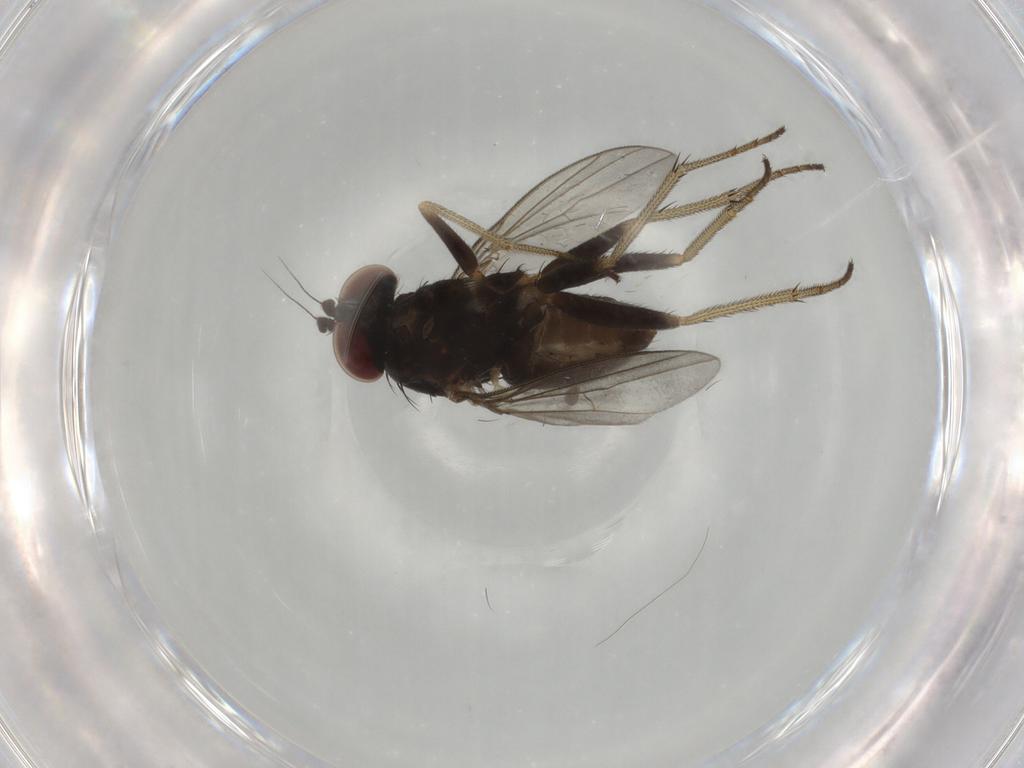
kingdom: Animalia
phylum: Arthropoda
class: Insecta
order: Diptera
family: Dolichopodidae
